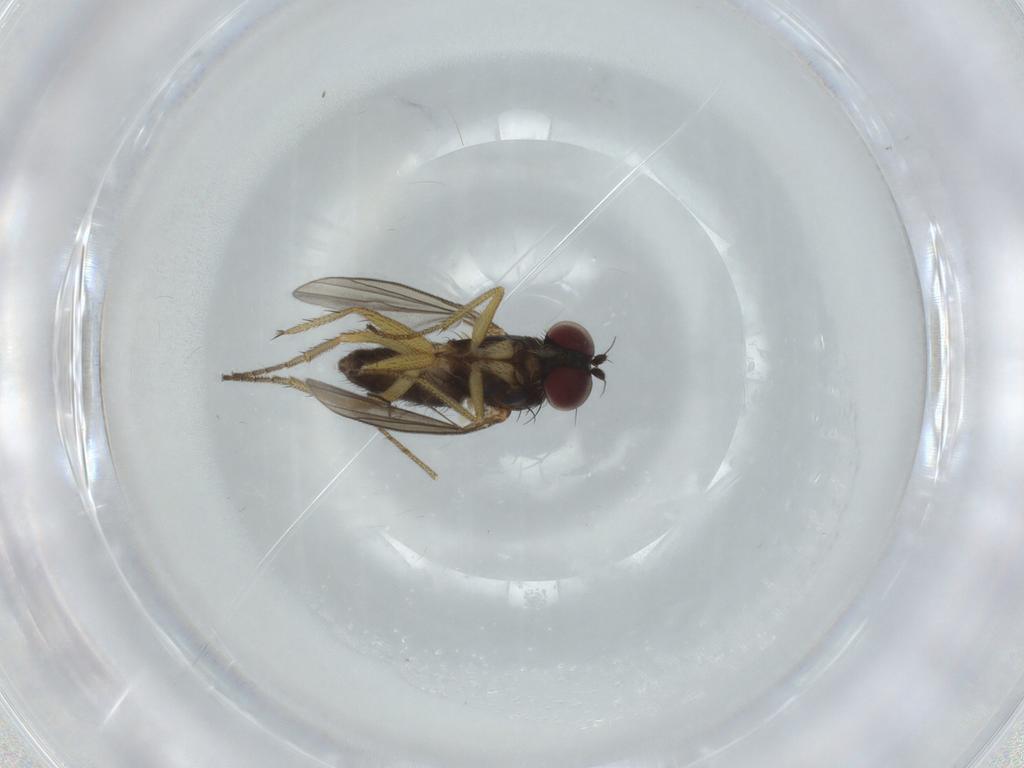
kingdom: Animalia
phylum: Arthropoda
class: Insecta
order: Diptera
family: Dolichopodidae
